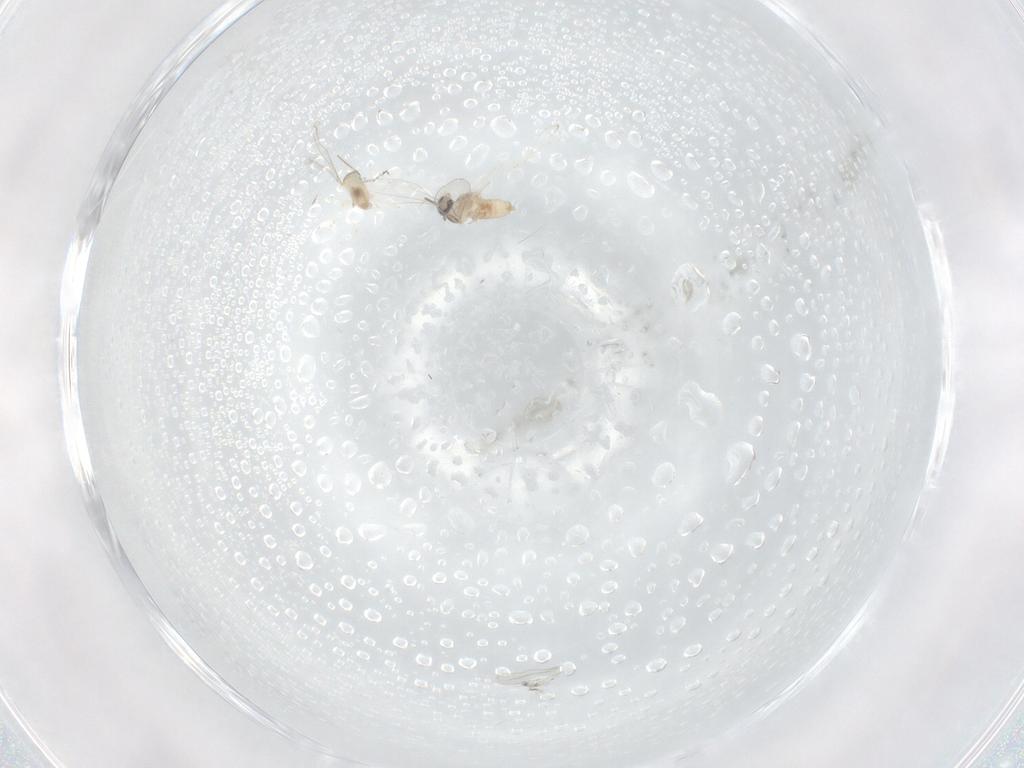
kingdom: Animalia
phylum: Arthropoda
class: Insecta
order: Diptera
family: Cecidomyiidae
